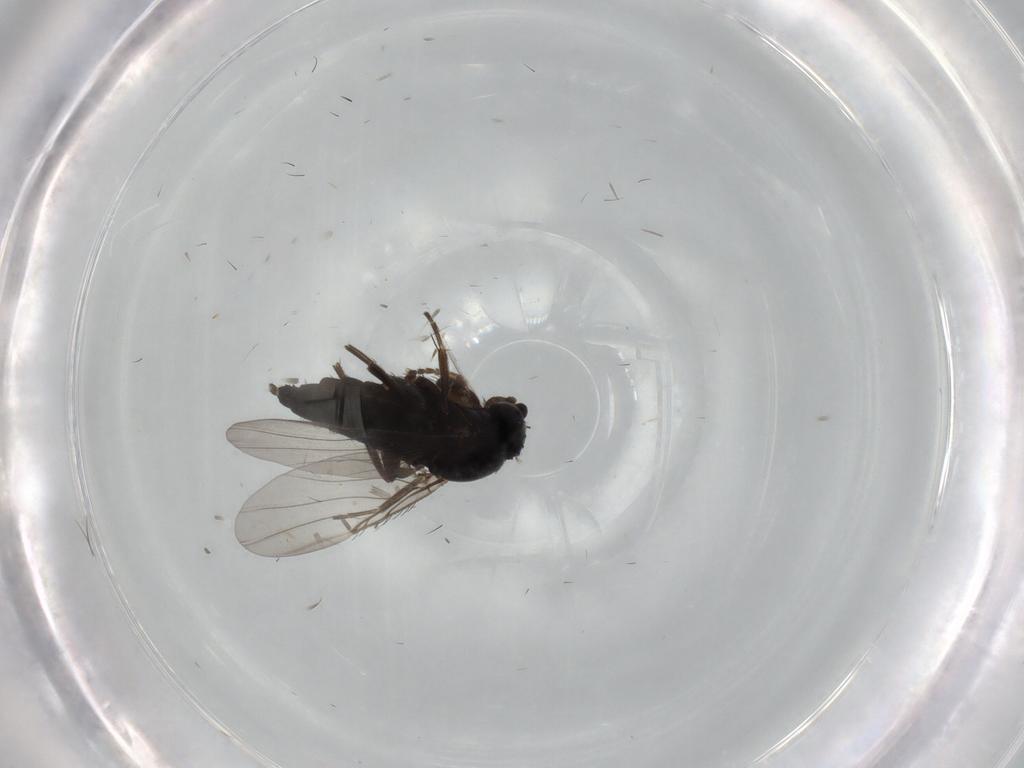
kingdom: Animalia
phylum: Arthropoda
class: Insecta
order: Diptera
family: Phoridae
